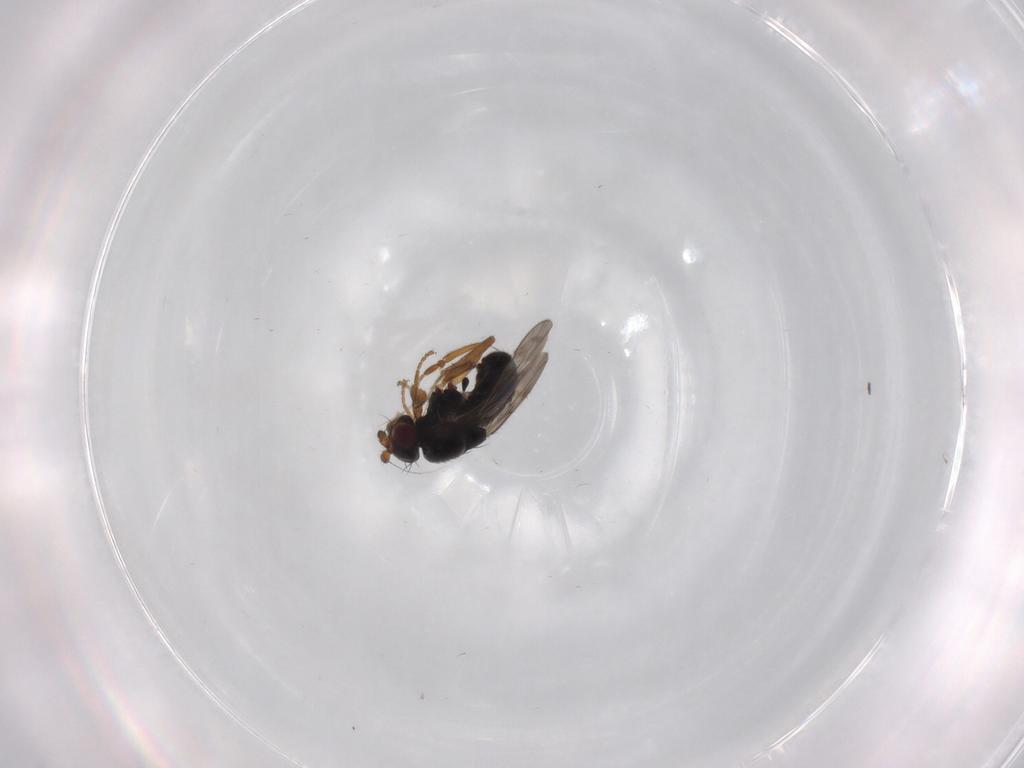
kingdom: Animalia
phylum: Arthropoda
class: Insecta
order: Diptera
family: Sphaeroceridae
